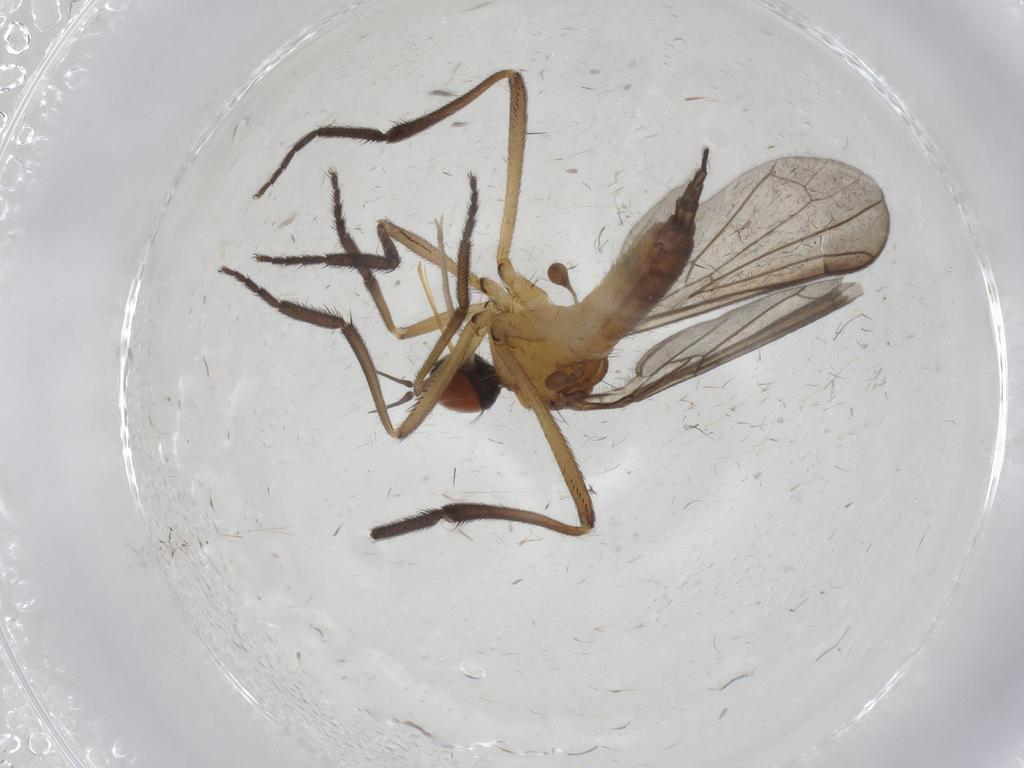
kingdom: Animalia
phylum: Arthropoda
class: Insecta
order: Diptera
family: Empididae
